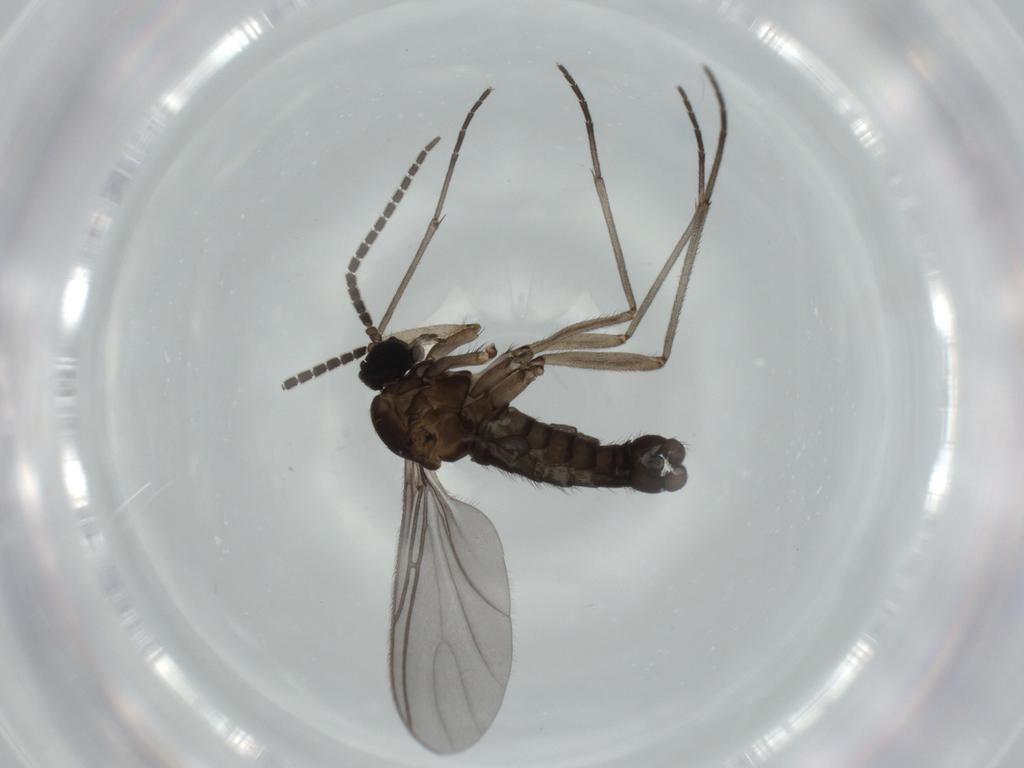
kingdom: Animalia
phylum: Arthropoda
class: Insecta
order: Diptera
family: Sciaridae
